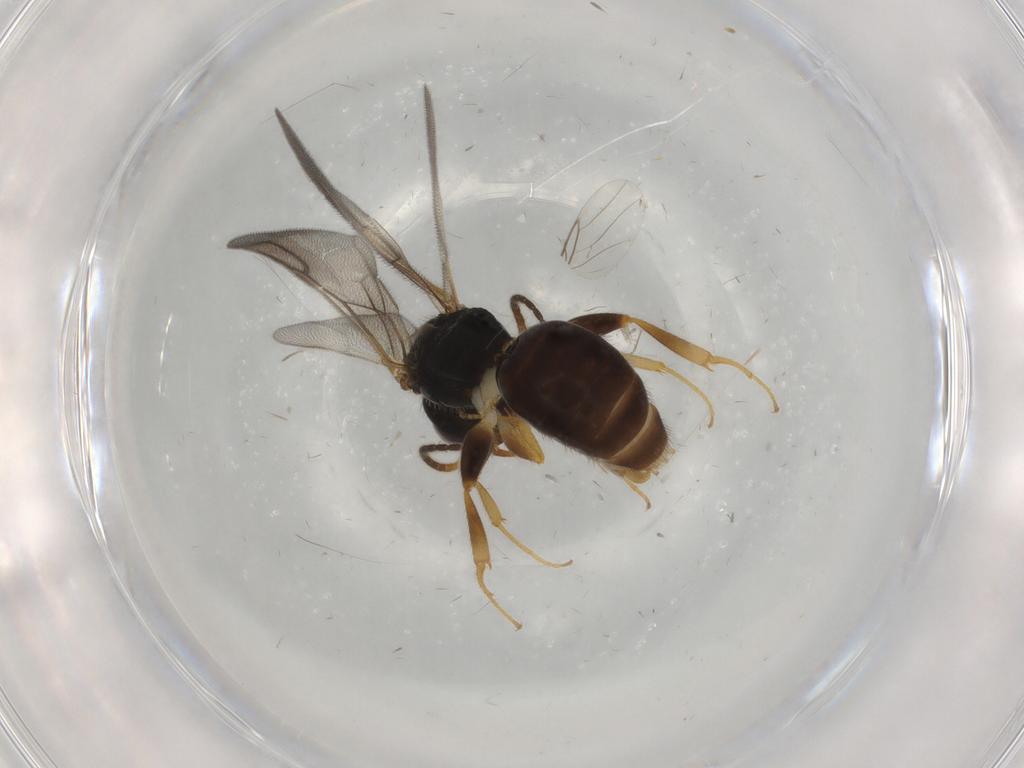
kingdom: Animalia
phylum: Arthropoda
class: Insecta
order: Hymenoptera
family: Bethylidae
